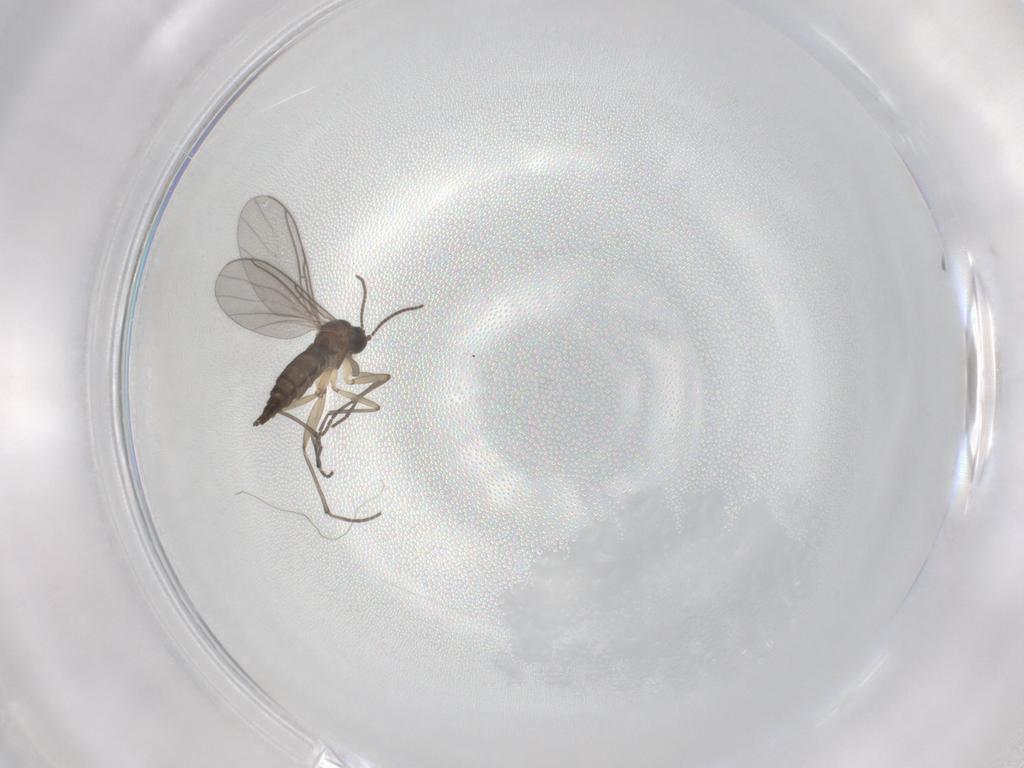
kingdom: Animalia
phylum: Arthropoda
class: Insecta
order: Diptera
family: Sciaridae
